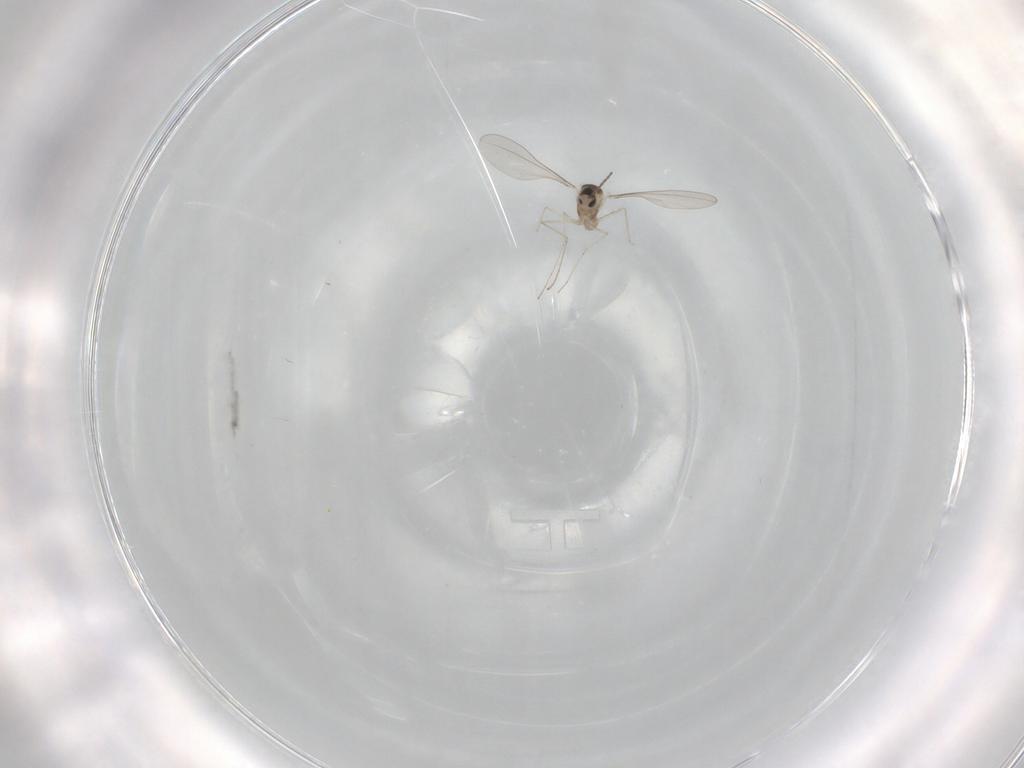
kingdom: Animalia
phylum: Arthropoda
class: Insecta
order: Diptera
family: Cecidomyiidae
